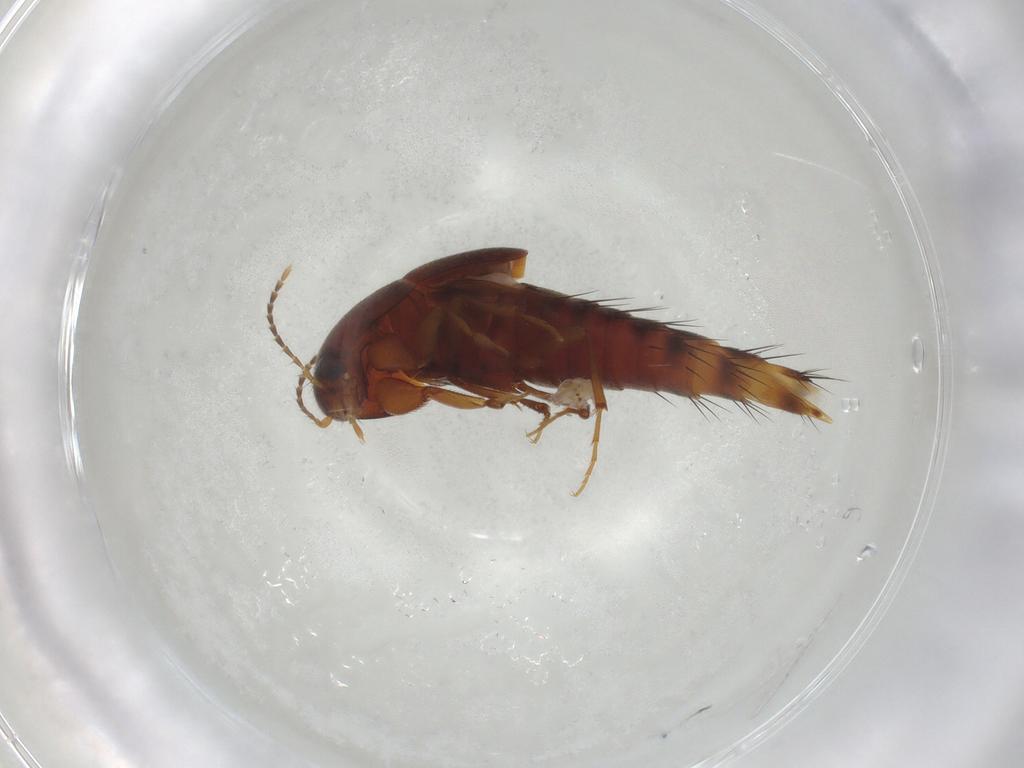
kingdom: Animalia
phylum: Arthropoda
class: Insecta
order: Coleoptera
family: Staphylinidae
